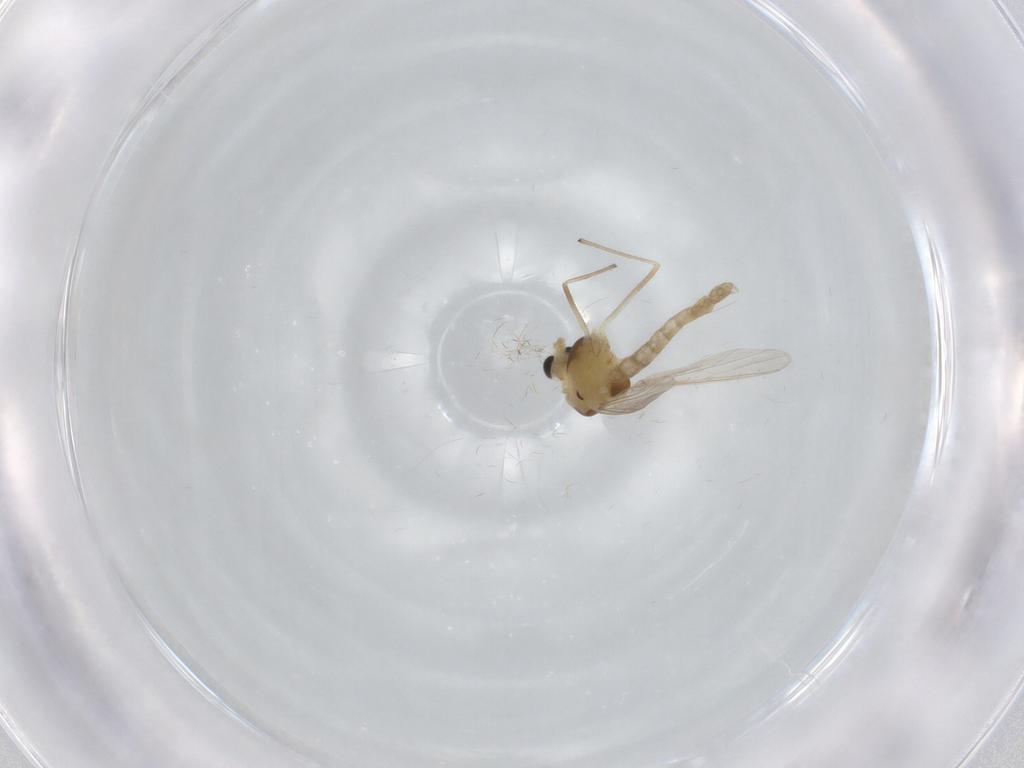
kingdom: Animalia
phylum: Arthropoda
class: Insecta
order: Diptera
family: Chironomidae
